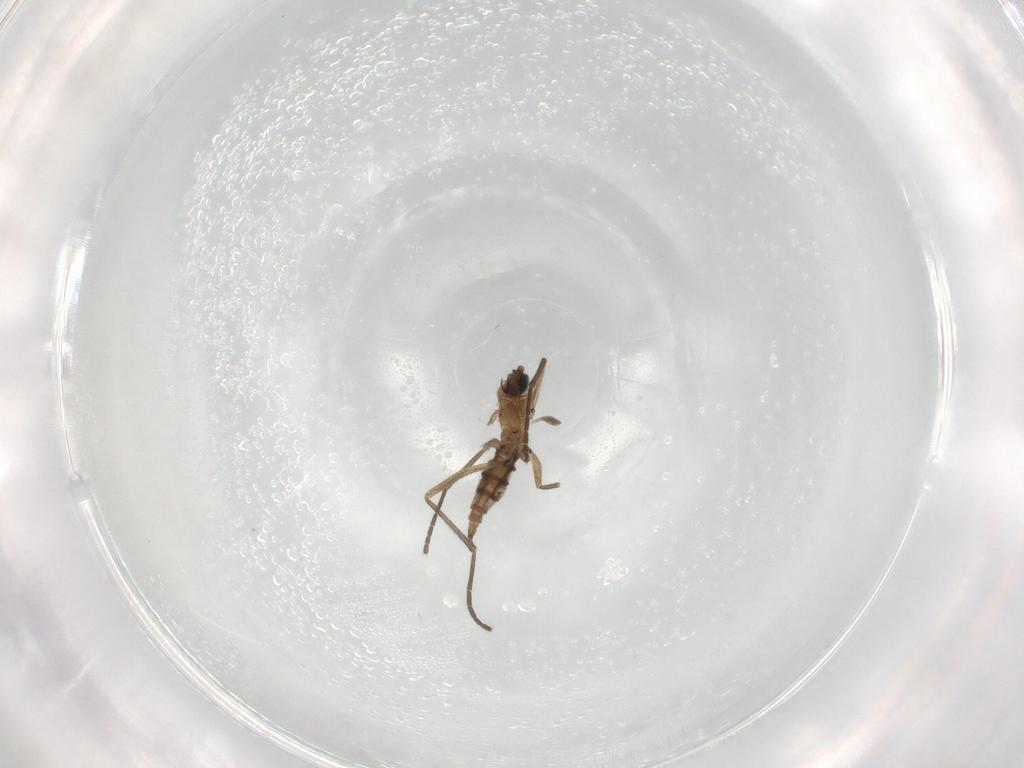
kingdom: Animalia
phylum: Arthropoda
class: Insecta
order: Diptera
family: Sciaridae
